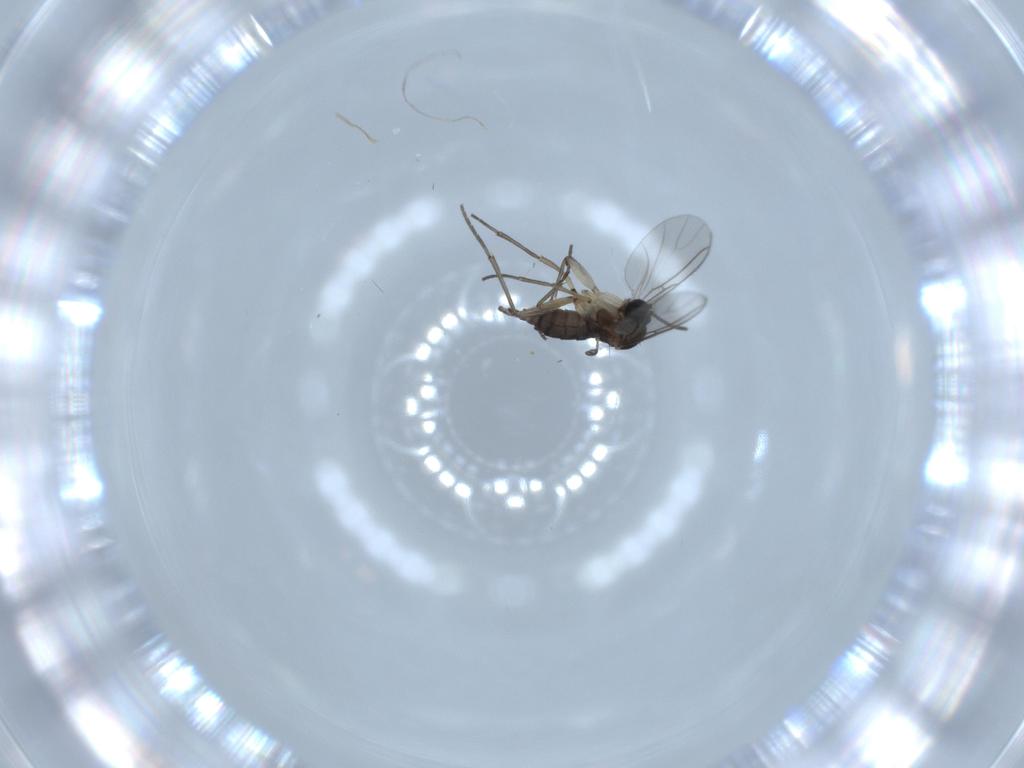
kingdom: Animalia
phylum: Arthropoda
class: Insecta
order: Diptera
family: Sciaridae
